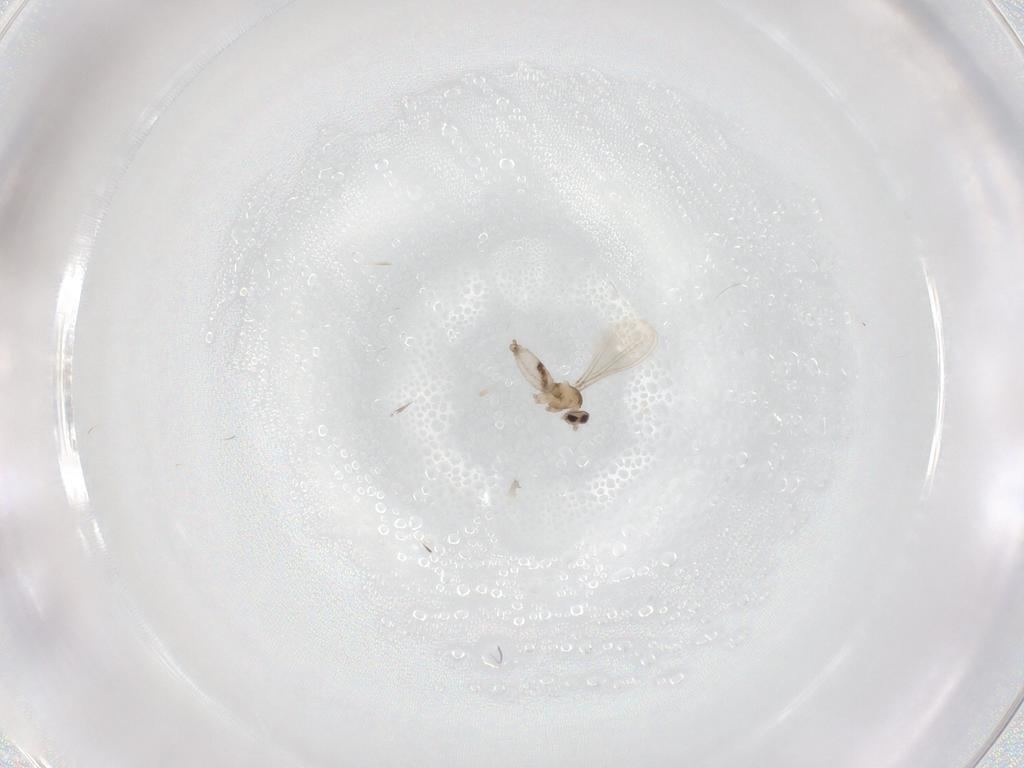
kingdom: Animalia
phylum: Arthropoda
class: Insecta
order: Diptera
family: Cecidomyiidae
